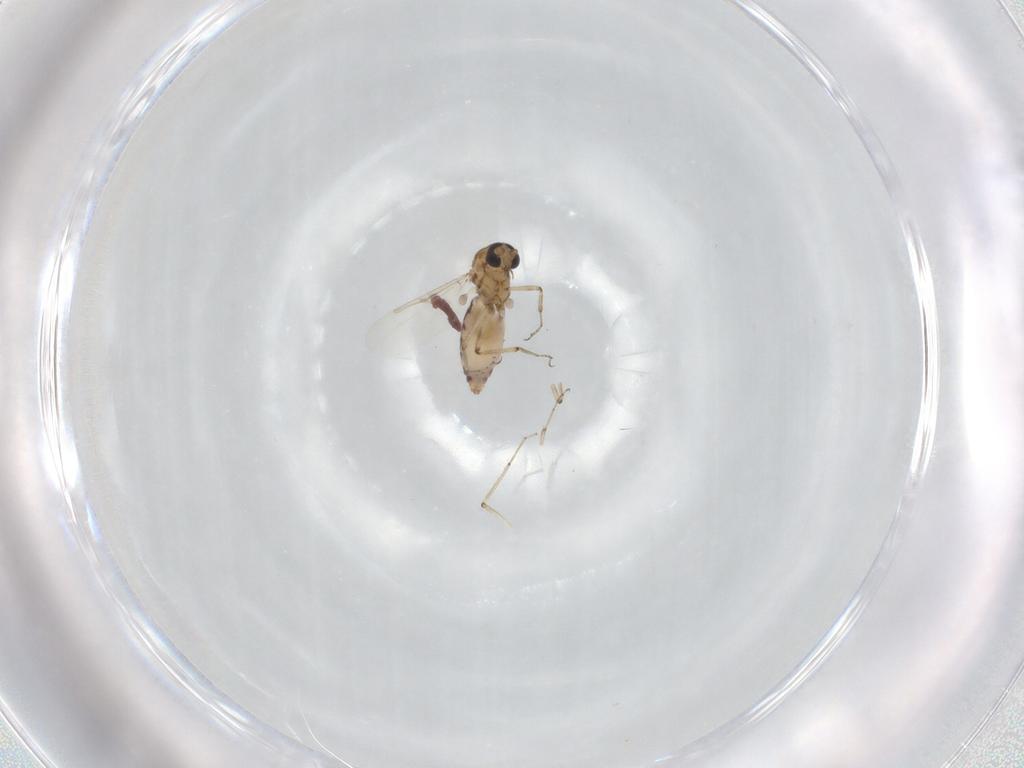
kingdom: Animalia
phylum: Arthropoda
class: Insecta
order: Diptera
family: Ceratopogonidae
